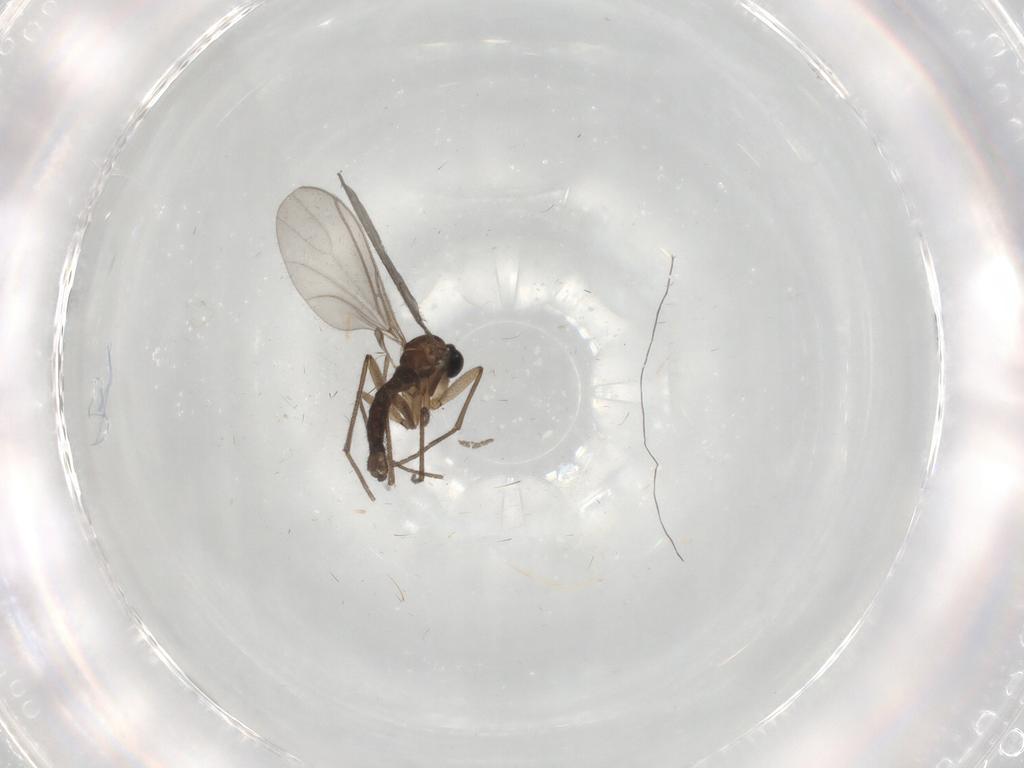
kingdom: Animalia
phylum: Arthropoda
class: Insecta
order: Diptera
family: Sciaridae
